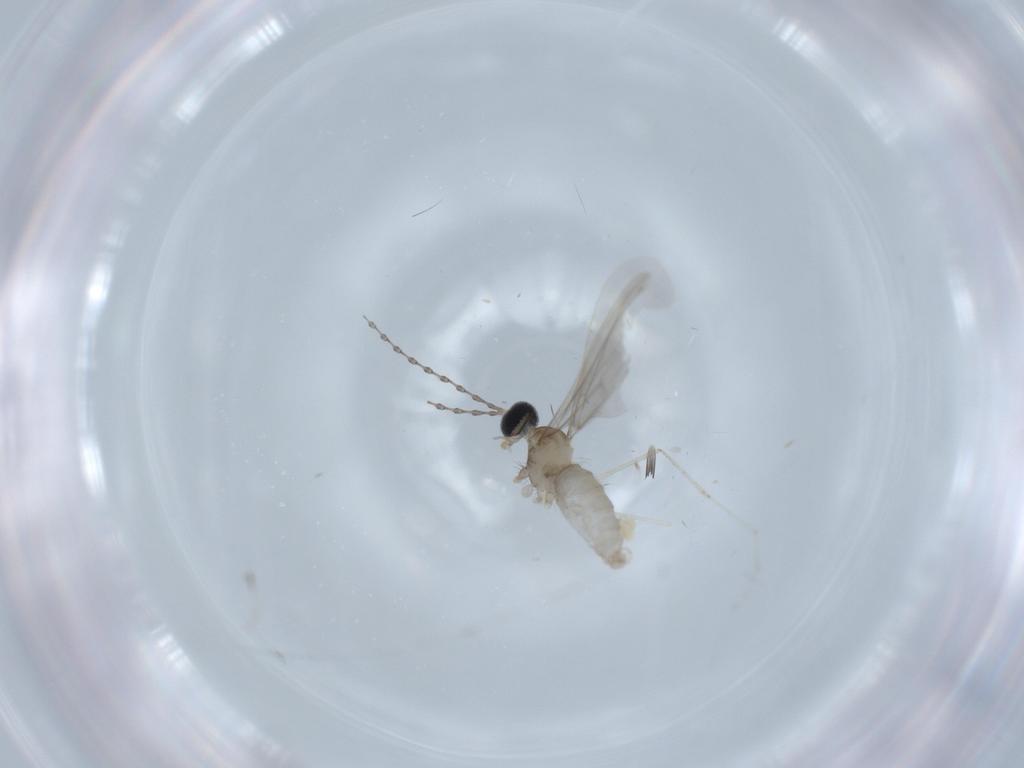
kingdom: Animalia
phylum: Arthropoda
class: Insecta
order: Diptera
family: Cecidomyiidae
